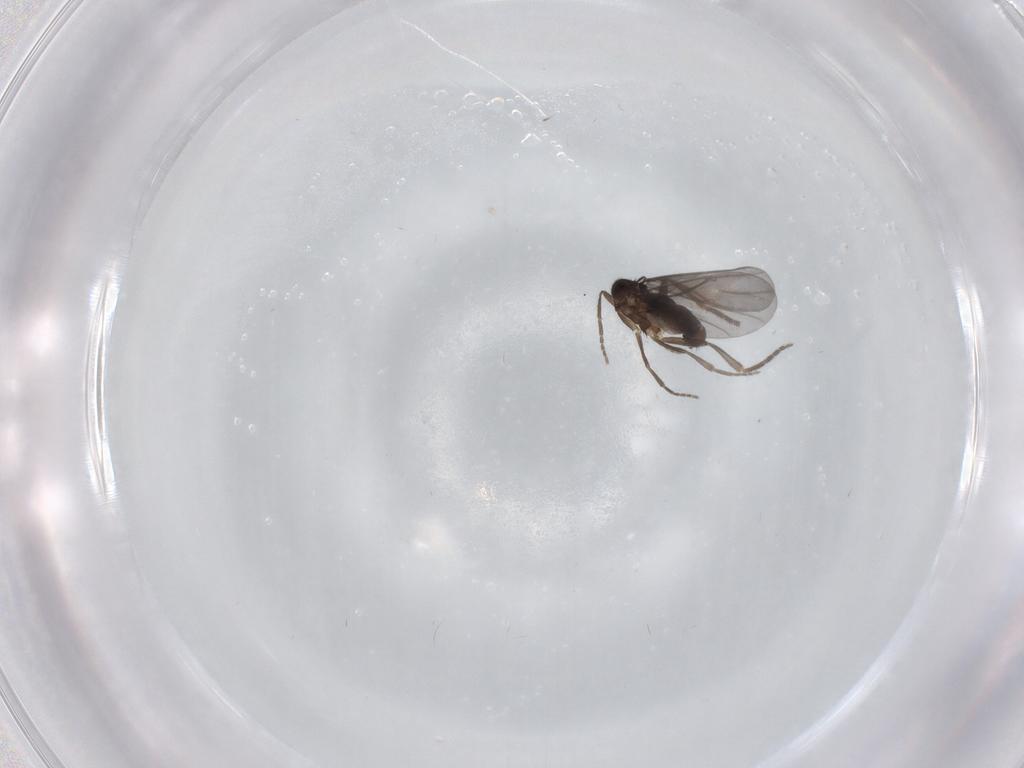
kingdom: Animalia
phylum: Arthropoda
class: Insecta
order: Diptera
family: Phoridae
